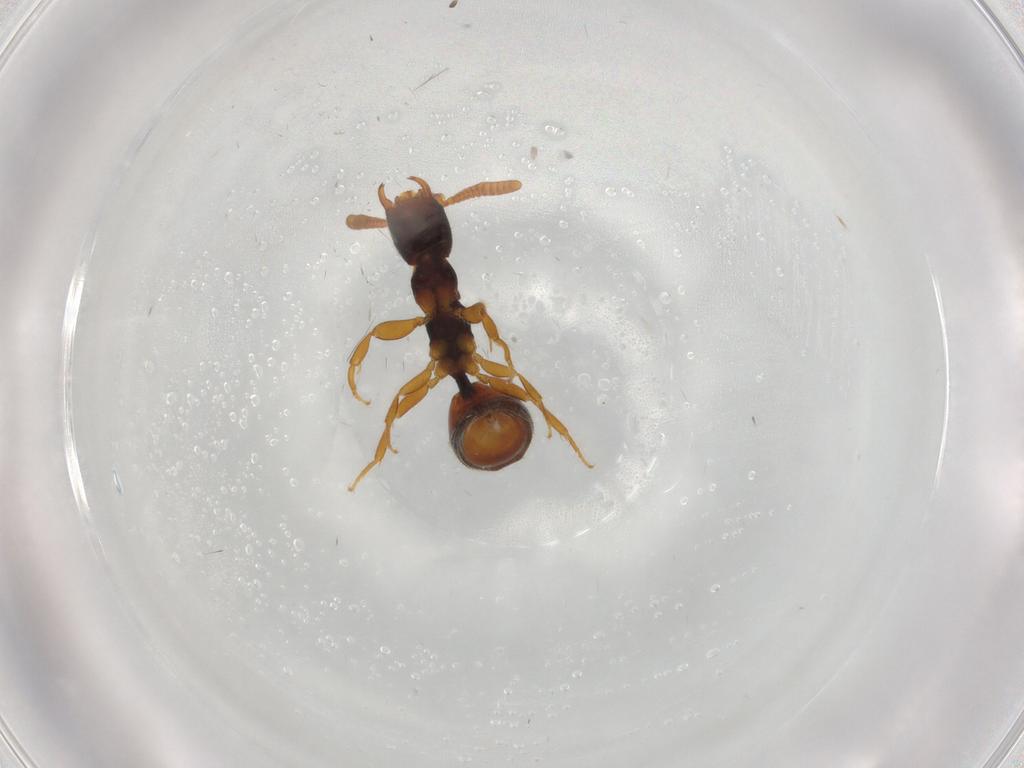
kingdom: Animalia
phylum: Arthropoda
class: Insecta
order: Hymenoptera
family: Bethylidae
